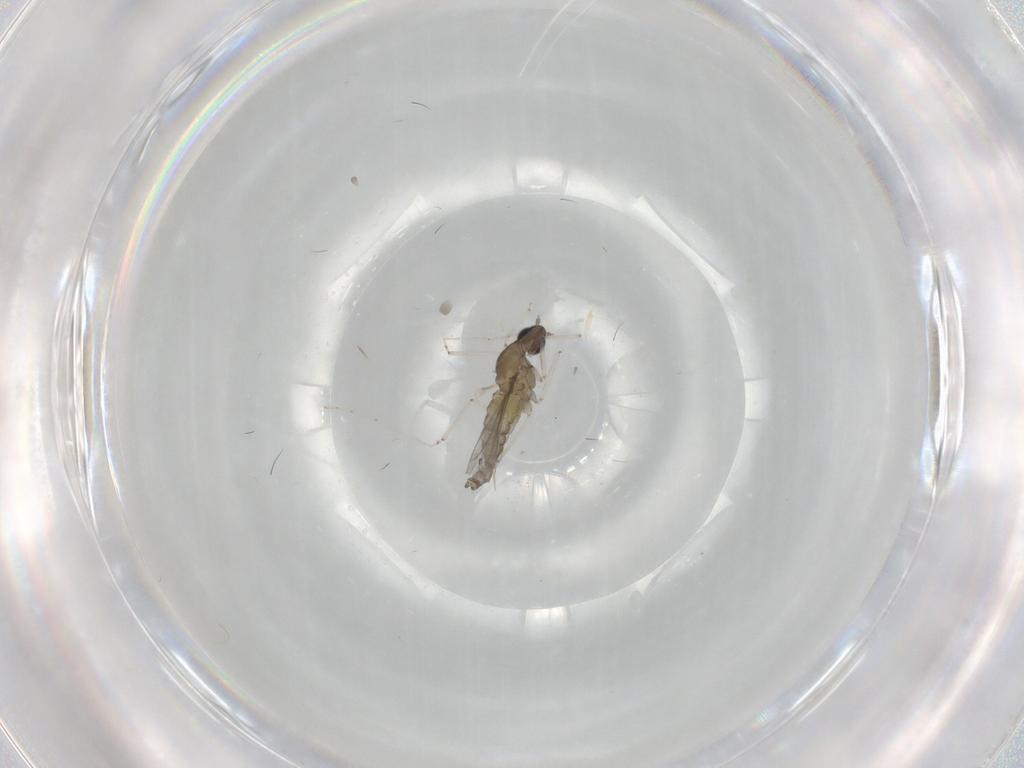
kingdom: Animalia
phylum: Arthropoda
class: Insecta
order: Diptera
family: Cecidomyiidae
